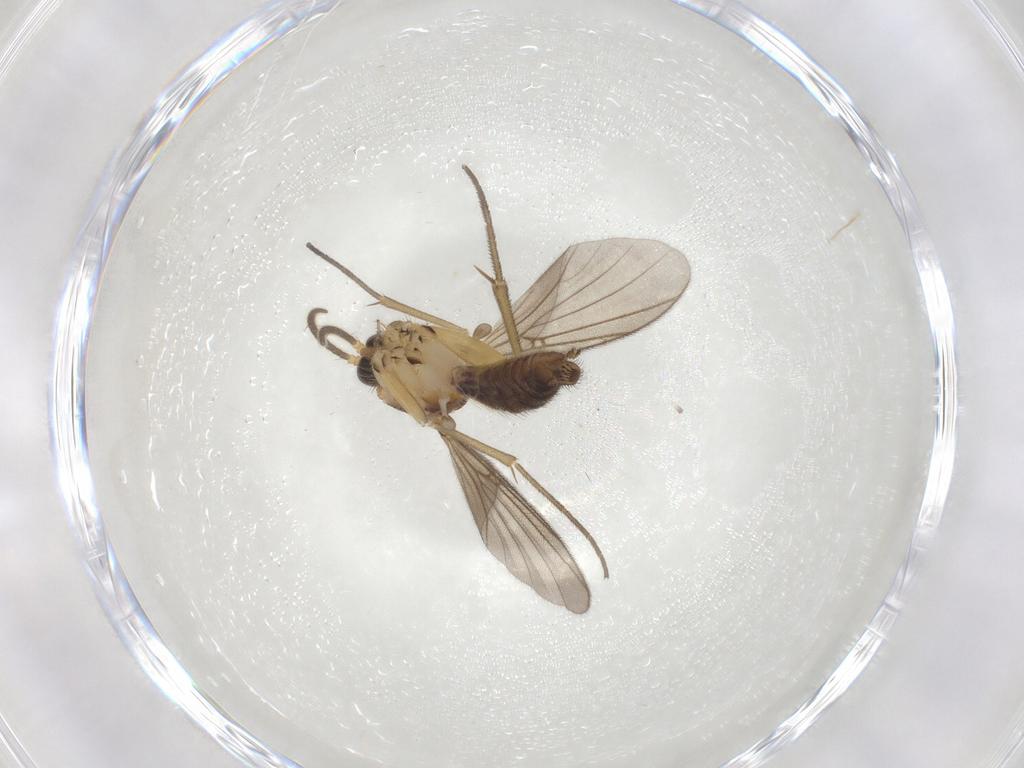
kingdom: Animalia
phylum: Arthropoda
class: Insecta
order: Diptera
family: Mycetophilidae
